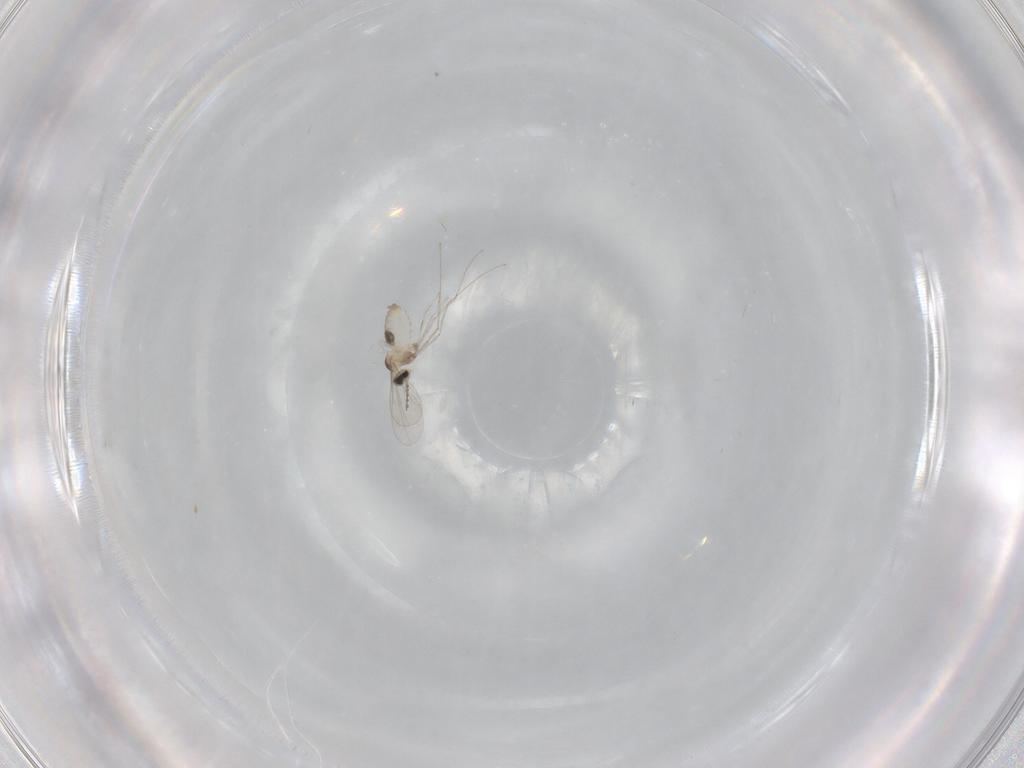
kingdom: Animalia
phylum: Arthropoda
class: Insecta
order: Diptera
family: Cecidomyiidae
